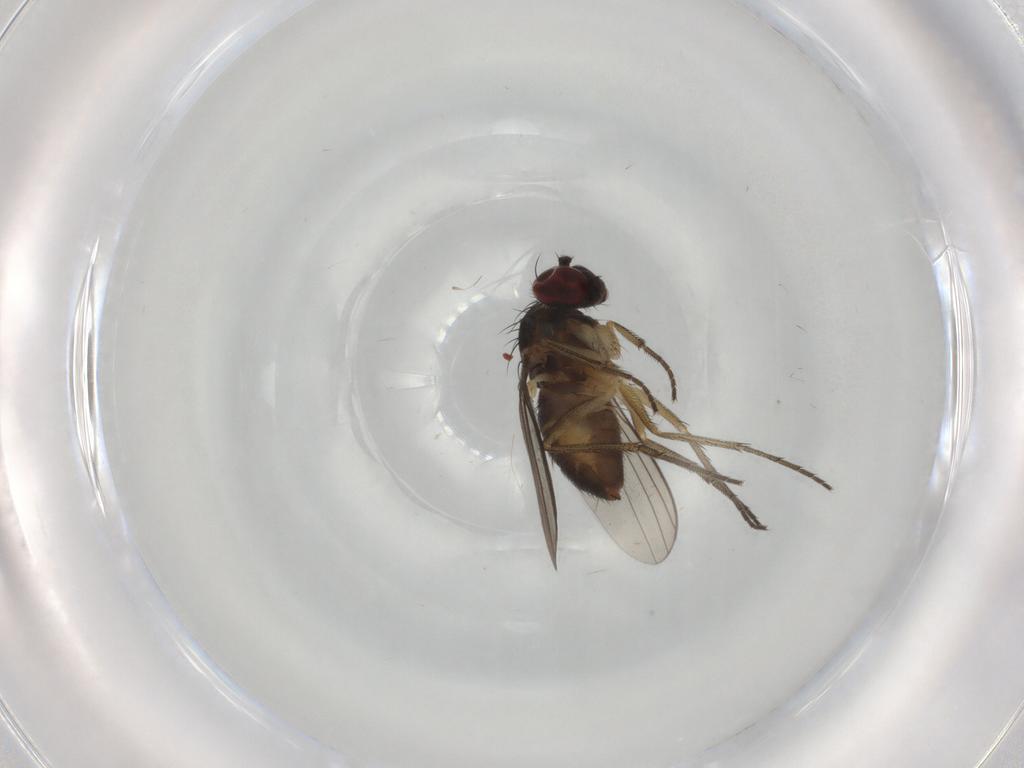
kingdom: Animalia
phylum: Arthropoda
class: Insecta
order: Diptera
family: Dolichopodidae
